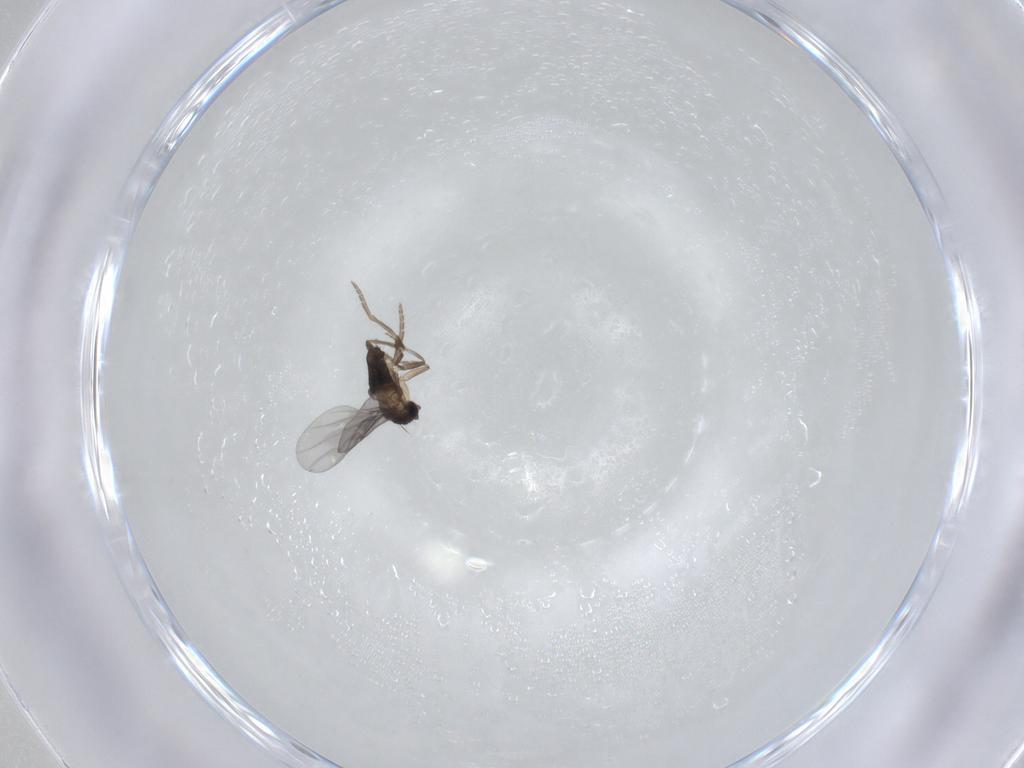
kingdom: Animalia
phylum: Arthropoda
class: Insecta
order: Diptera
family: Phoridae
